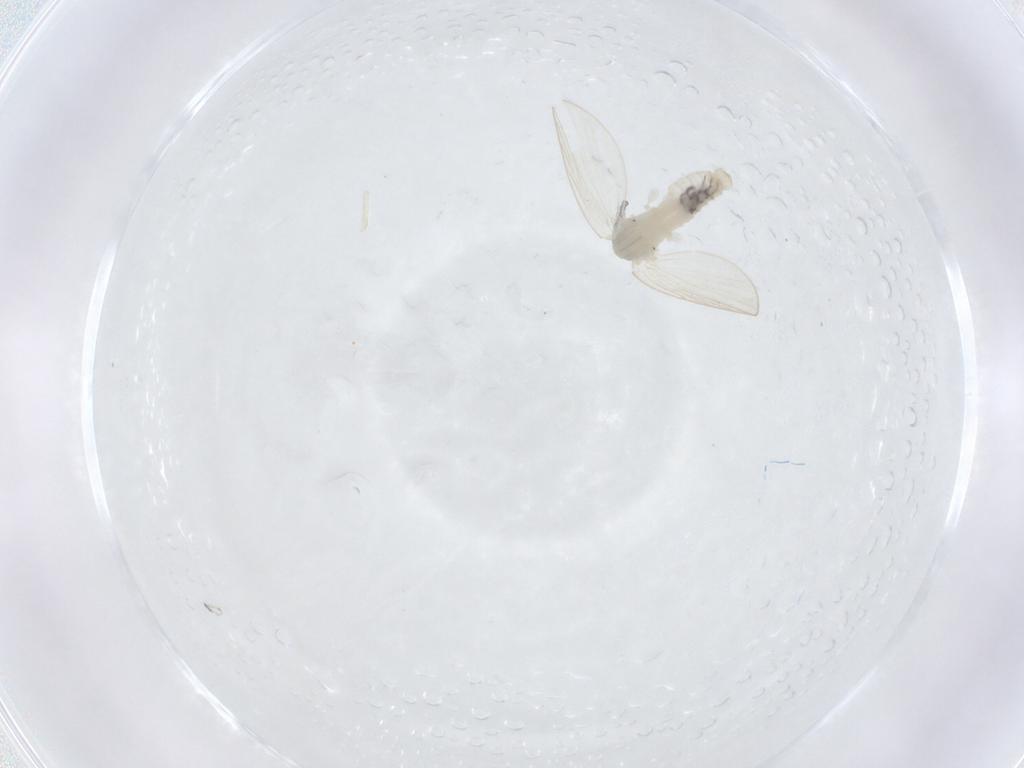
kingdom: Animalia
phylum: Arthropoda
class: Insecta
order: Diptera
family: Psychodidae
